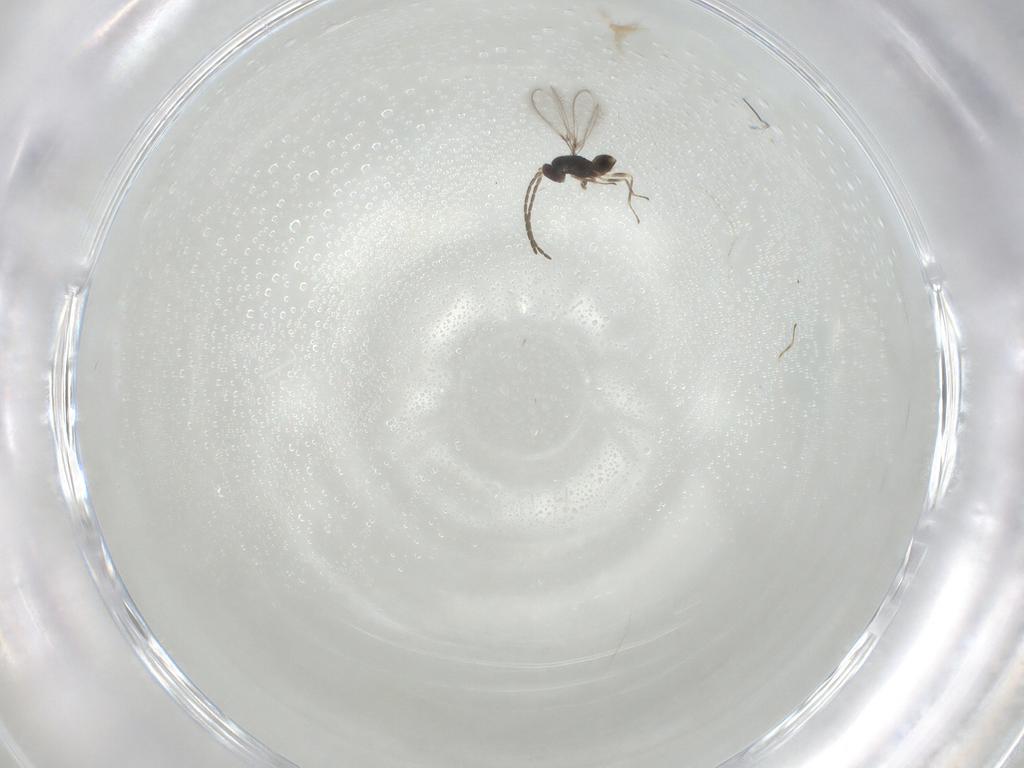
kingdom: Animalia
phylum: Arthropoda
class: Insecta
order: Hymenoptera
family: Mymaridae
